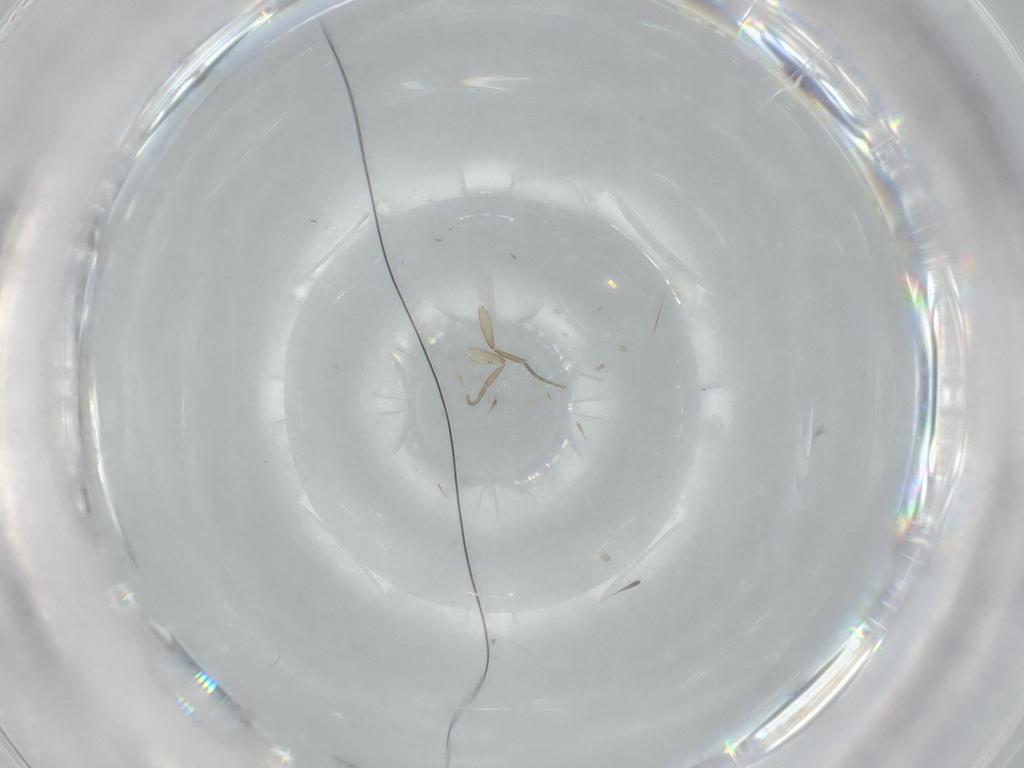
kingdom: Animalia
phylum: Arthropoda
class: Insecta
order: Diptera
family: Phoridae
